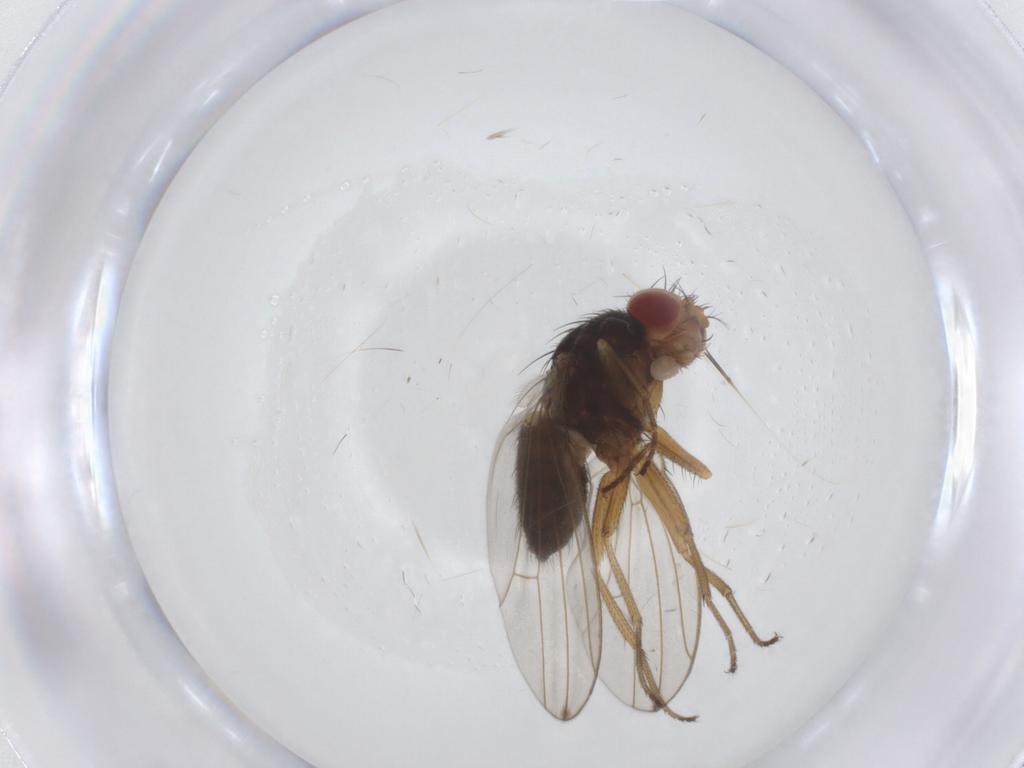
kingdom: Animalia
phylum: Arthropoda
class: Insecta
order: Diptera
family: Drosophilidae
